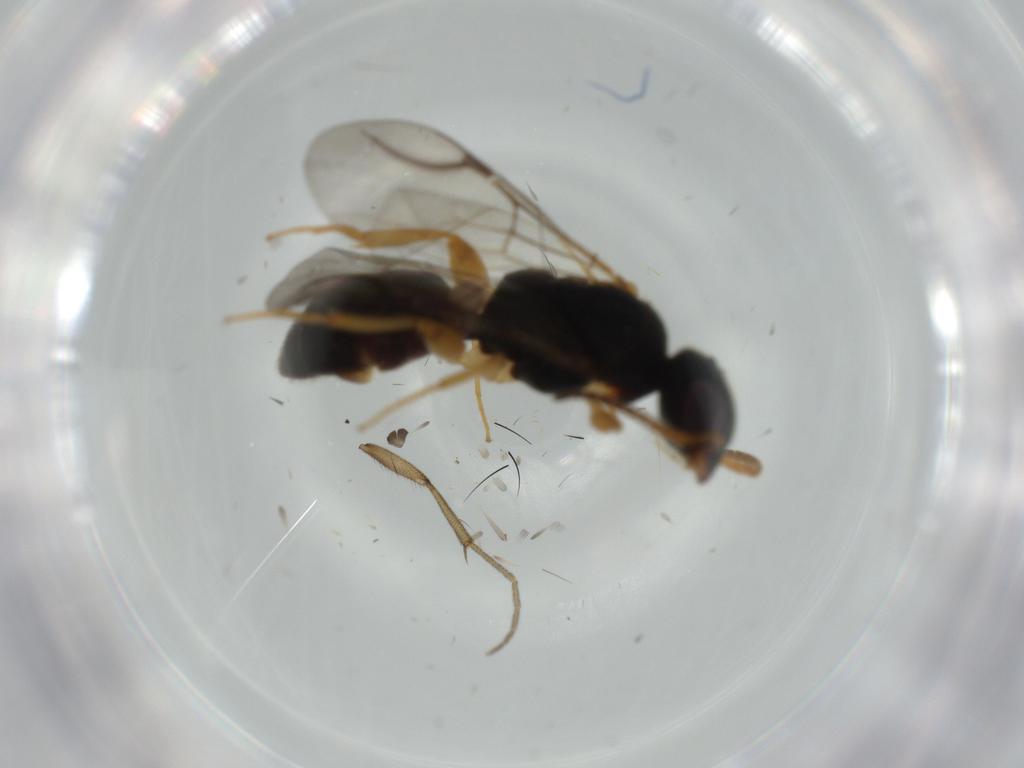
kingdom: Animalia
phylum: Arthropoda
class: Insecta
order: Hymenoptera
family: Bethylidae
